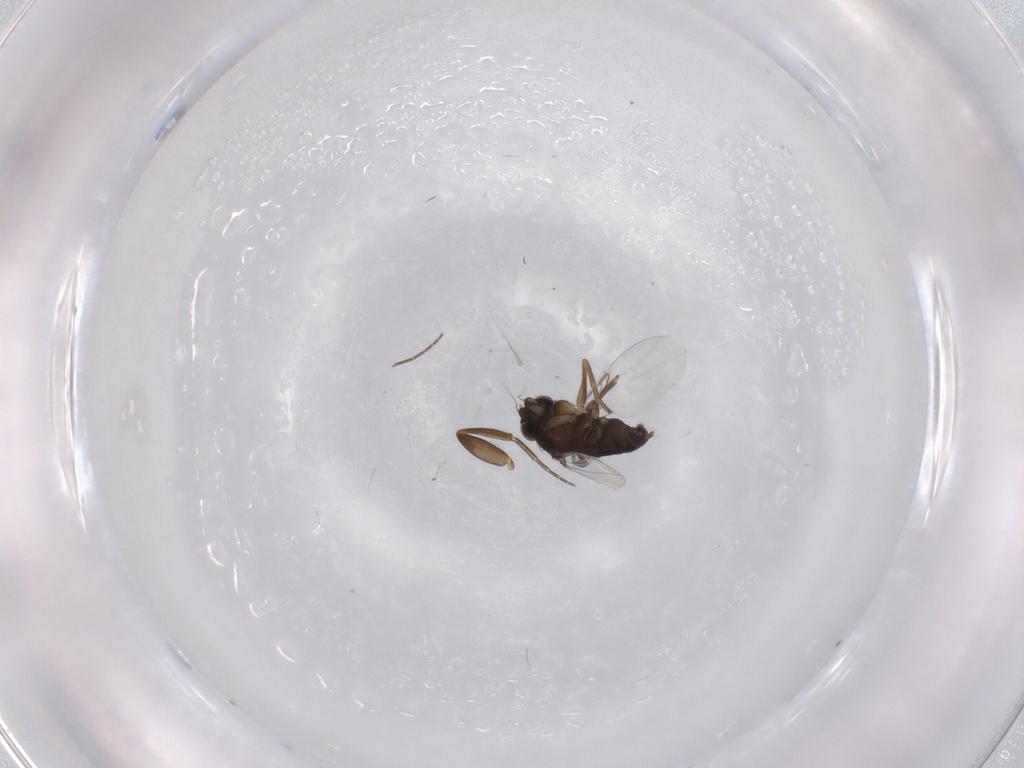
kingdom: Animalia
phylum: Arthropoda
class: Insecta
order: Diptera
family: Phoridae
